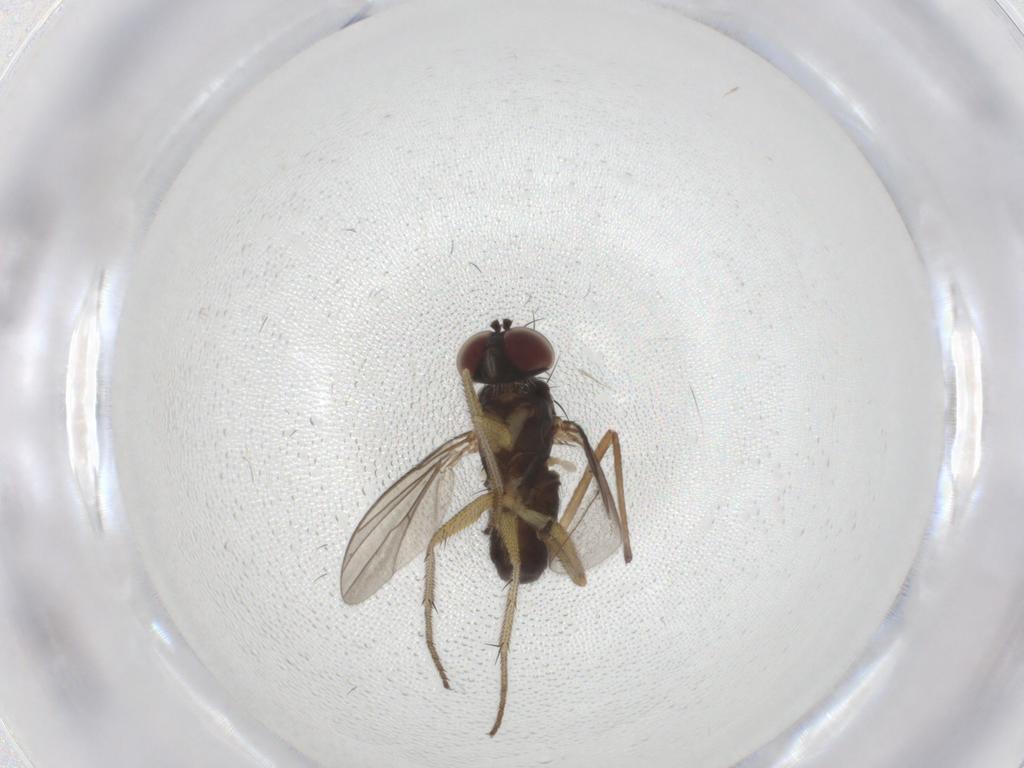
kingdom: Animalia
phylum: Arthropoda
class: Insecta
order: Diptera
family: Dolichopodidae
